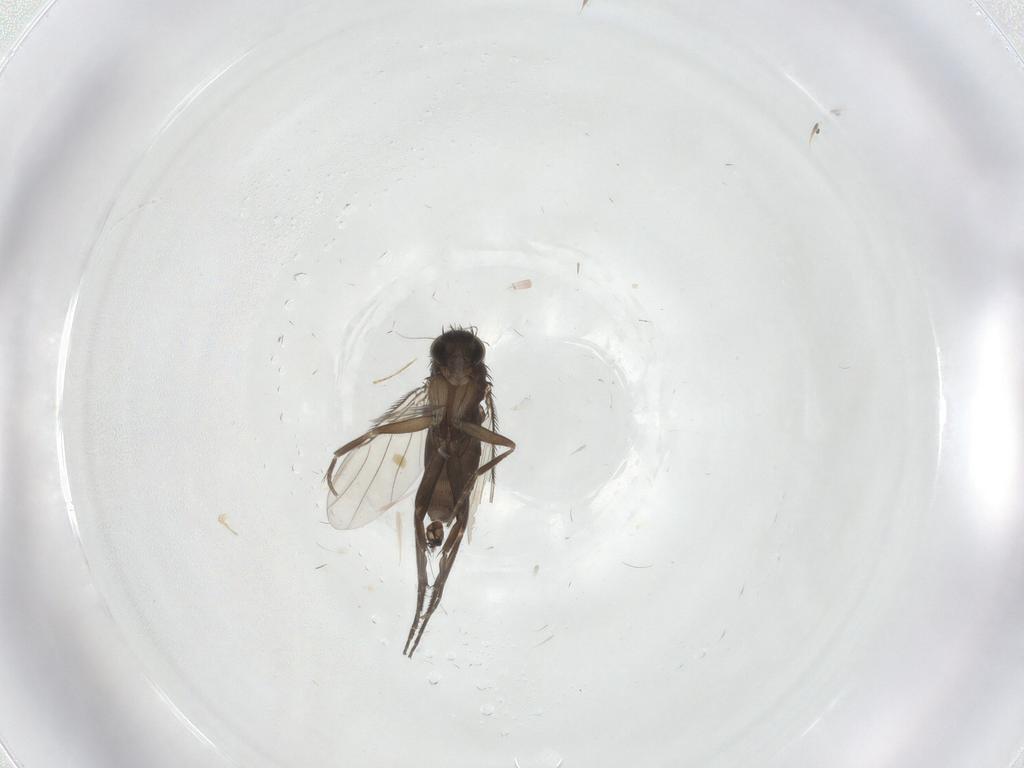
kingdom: Animalia
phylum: Arthropoda
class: Insecta
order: Diptera
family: Phoridae
